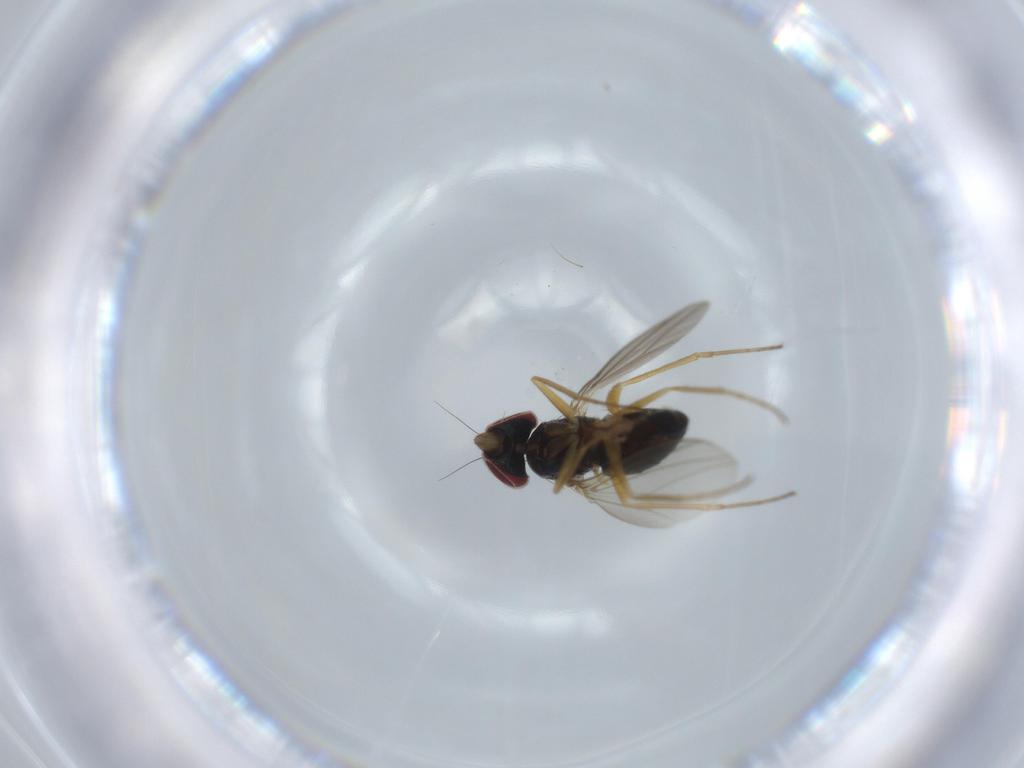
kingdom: Animalia
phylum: Arthropoda
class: Insecta
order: Diptera
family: Dolichopodidae
